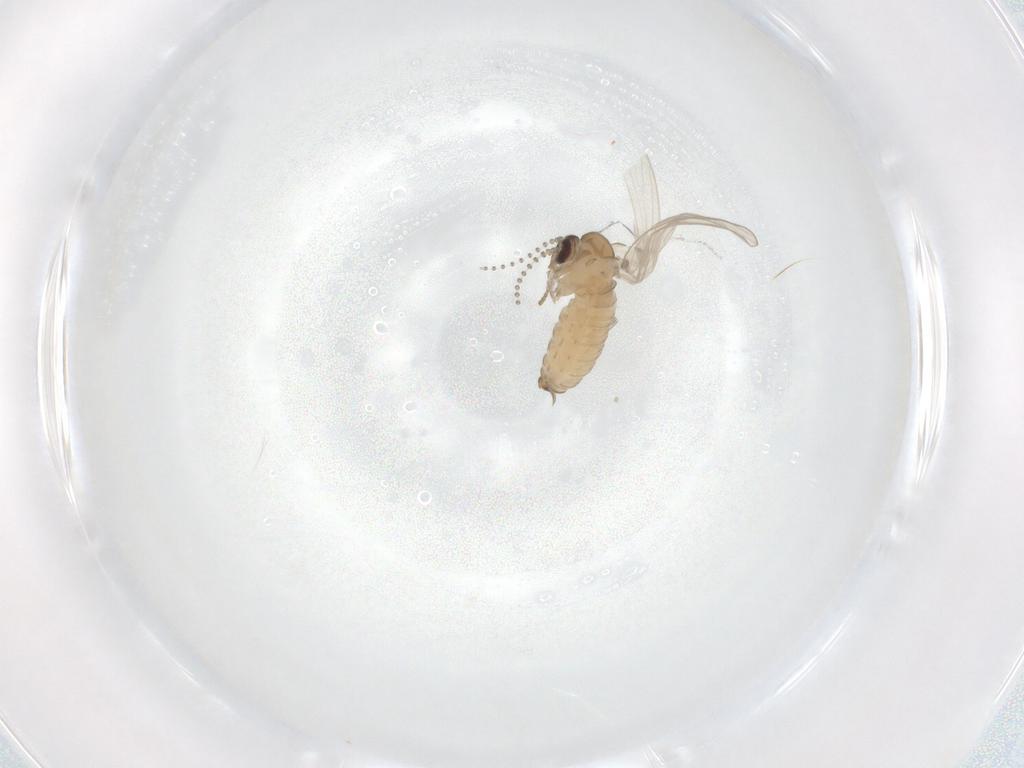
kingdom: Animalia
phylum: Arthropoda
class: Insecta
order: Diptera
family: Psychodidae
